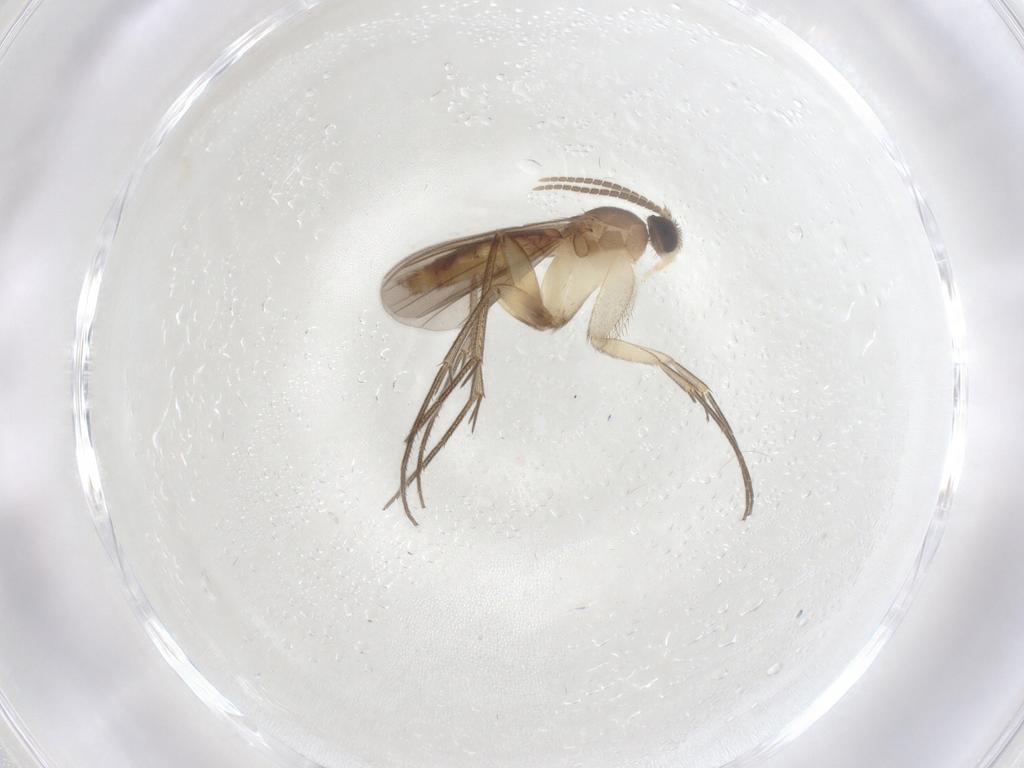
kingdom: Animalia
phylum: Arthropoda
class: Insecta
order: Diptera
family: Mycetophilidae
